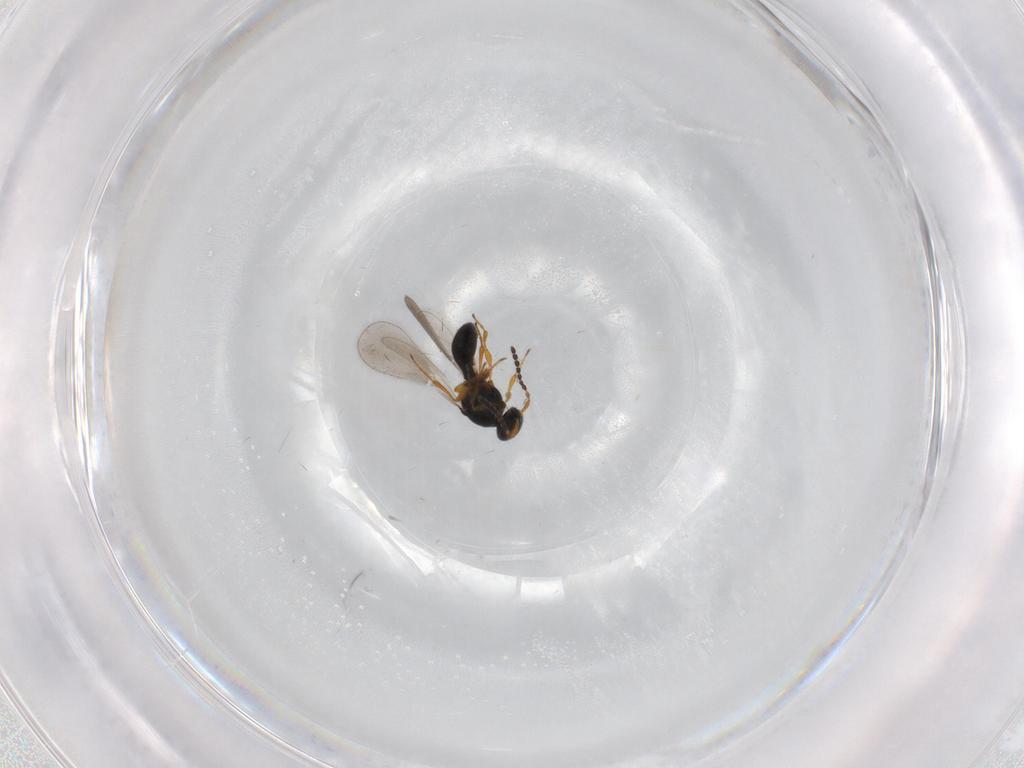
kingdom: Animalia
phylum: Arthropoda
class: Insecta
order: Hymenoptera
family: Platygastridae
